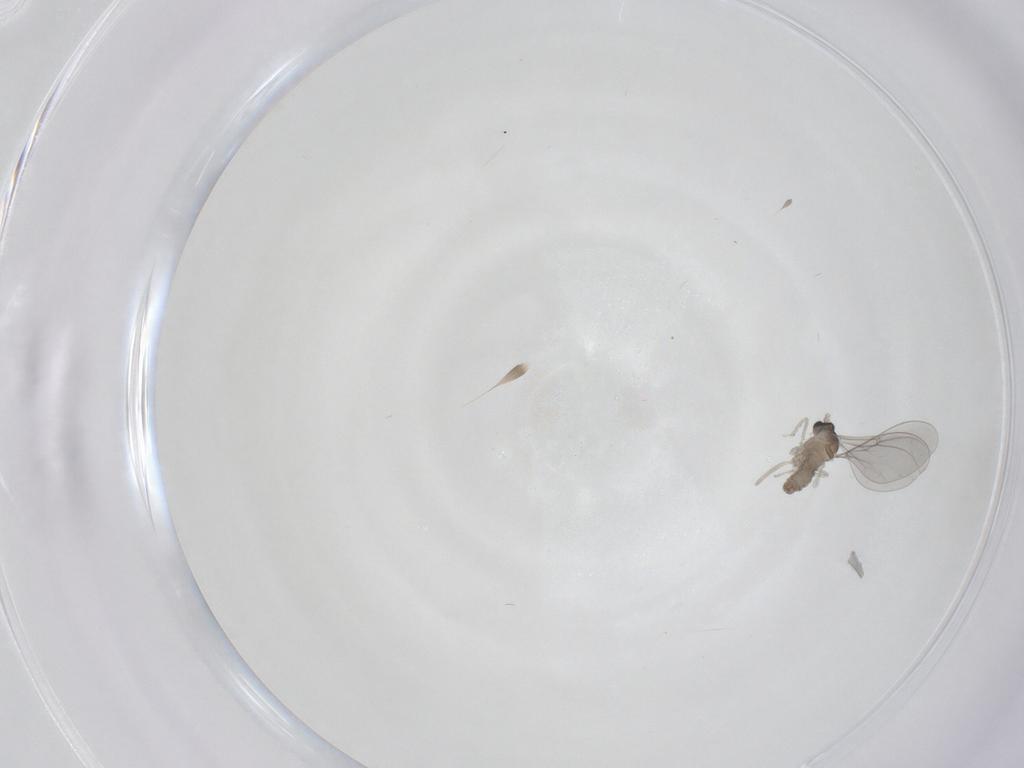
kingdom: Animalia
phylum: Arthropoda
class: Insecta
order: Diptera
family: Cecidomyiidae
